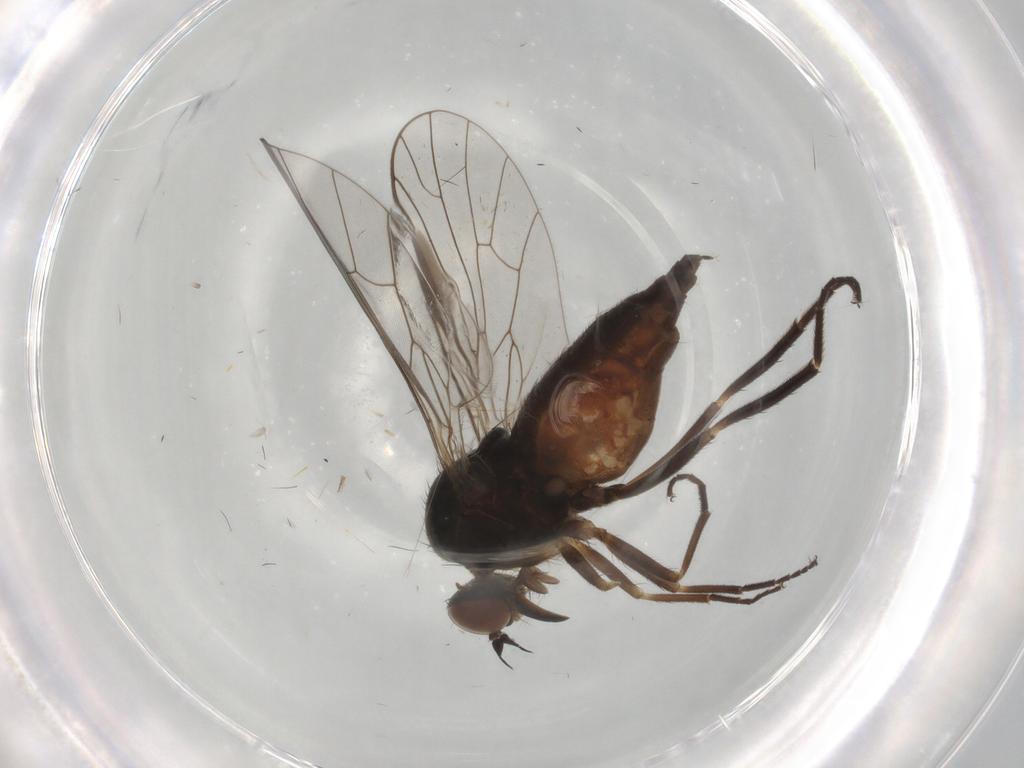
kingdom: Animalia
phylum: Arthropoda
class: Insecta
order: Diptera
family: Empididae
